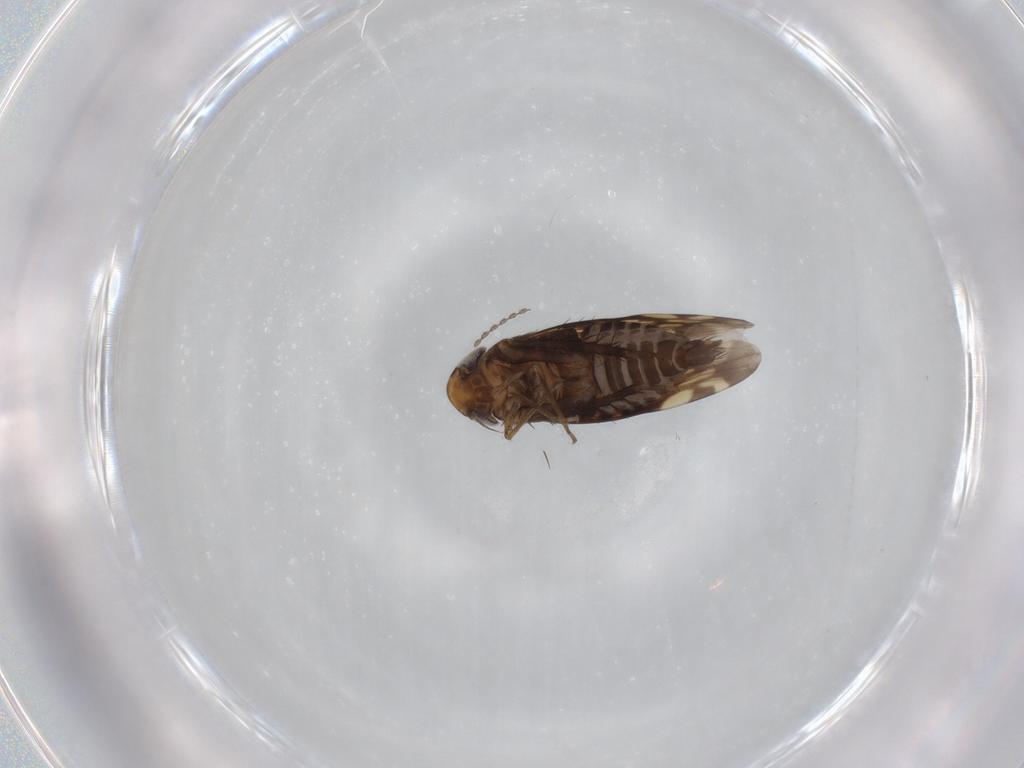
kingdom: Animalia
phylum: Arthropoda
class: Insecta
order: Hemiptera
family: Cicadellidae
